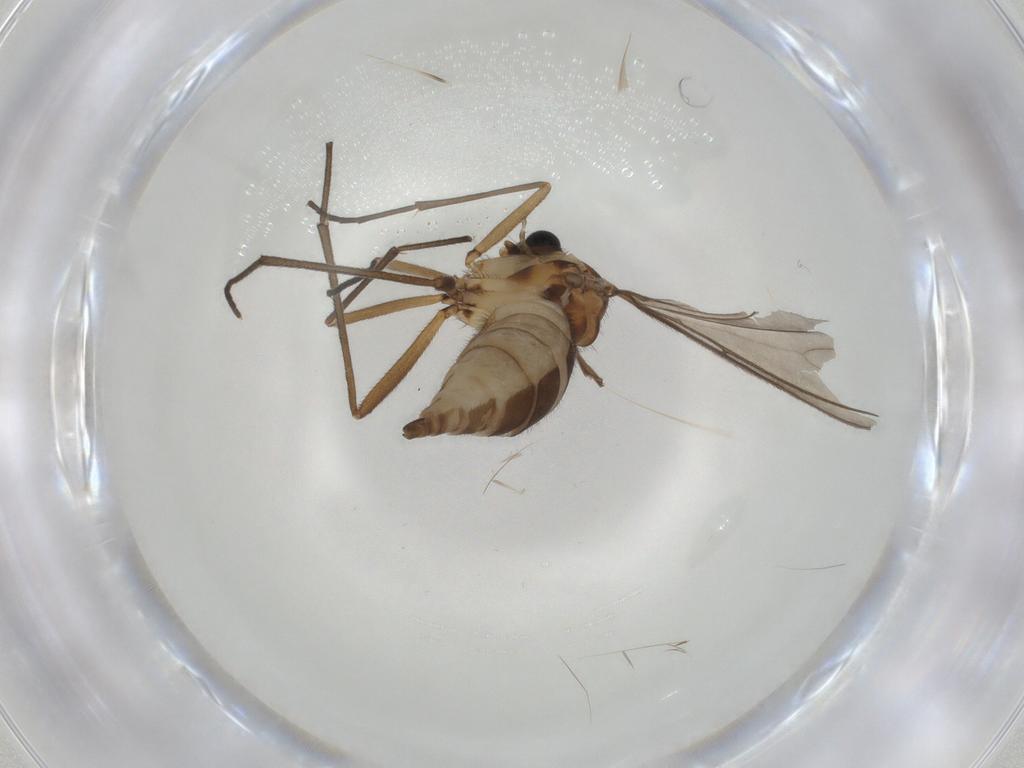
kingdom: Animalia
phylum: Arthropoda
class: Insecta
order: Diptera
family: Sciaridae
